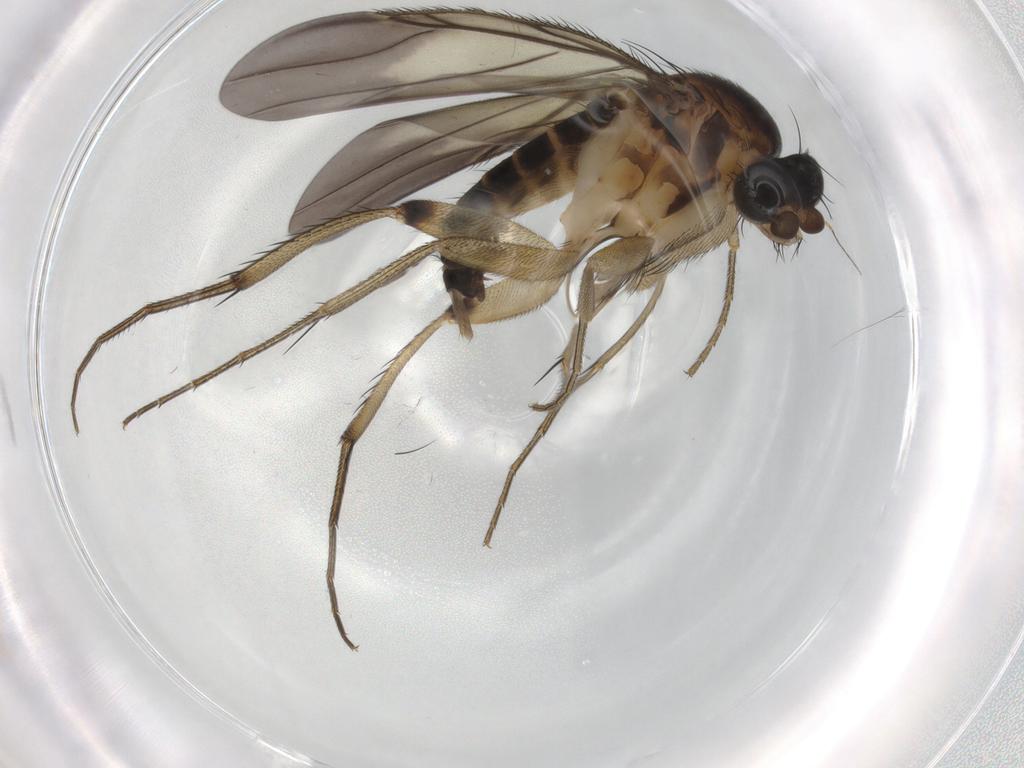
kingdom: Animalia
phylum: Arthropoda
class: Insecta
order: Diptera
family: Phoridae
